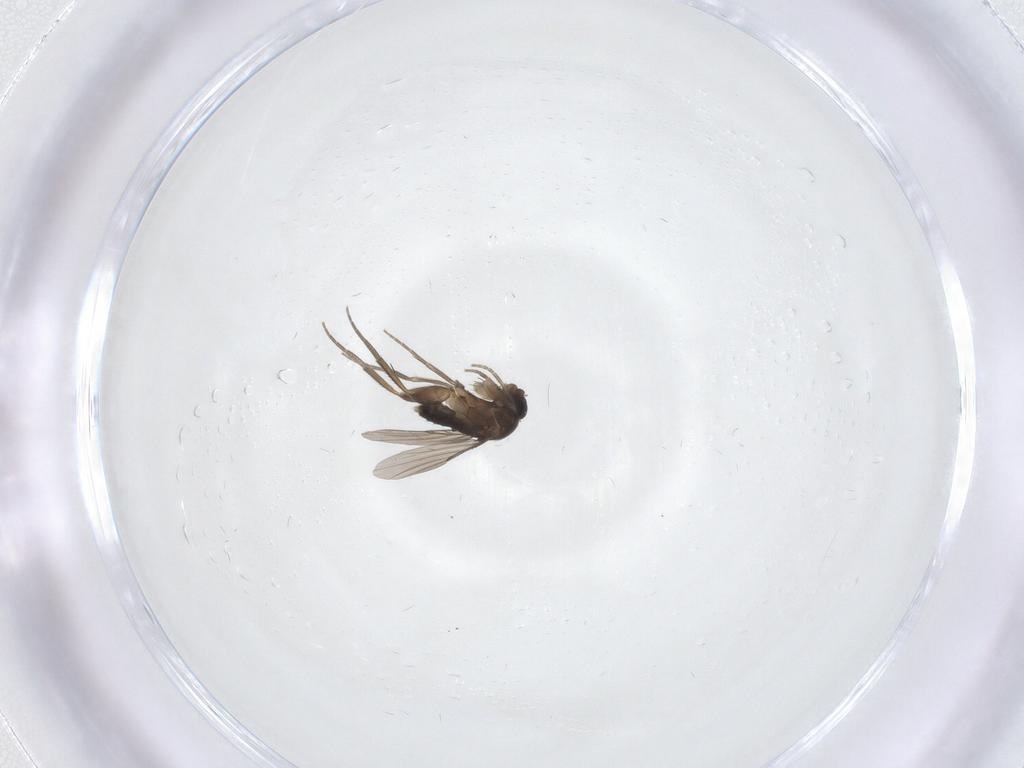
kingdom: Animalia
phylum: Arthropoda
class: Insecta
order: Diptera
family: Phoridae
